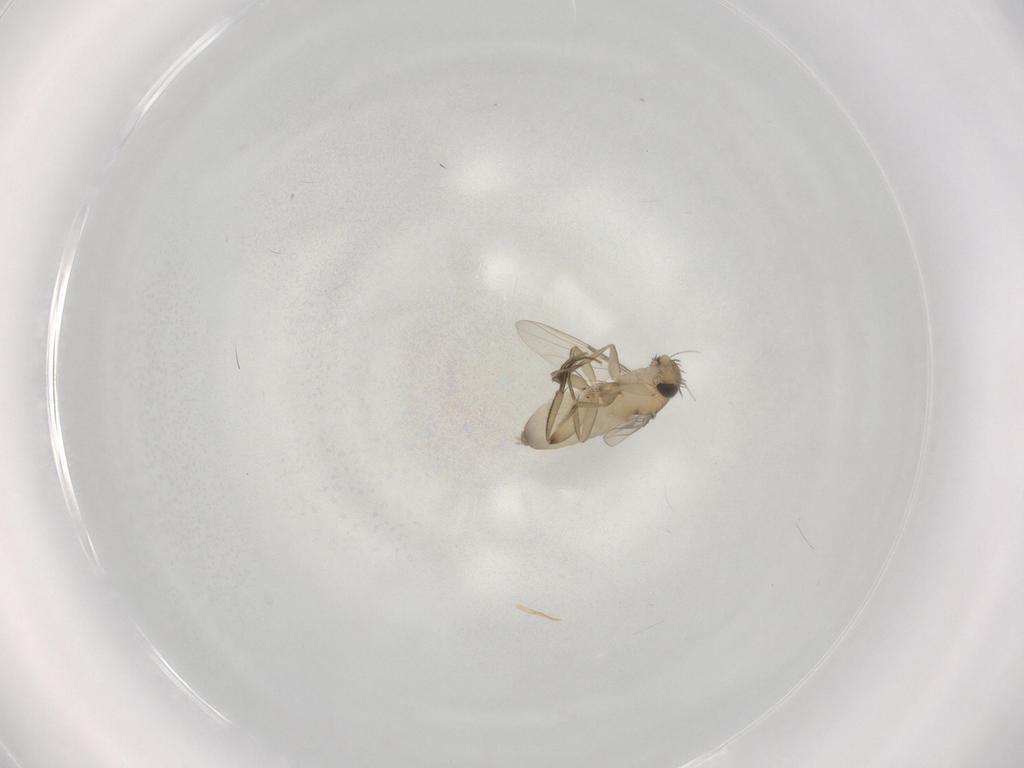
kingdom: Animalia
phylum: Arthropoda
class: Insecta
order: Diptera
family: Phoridae
